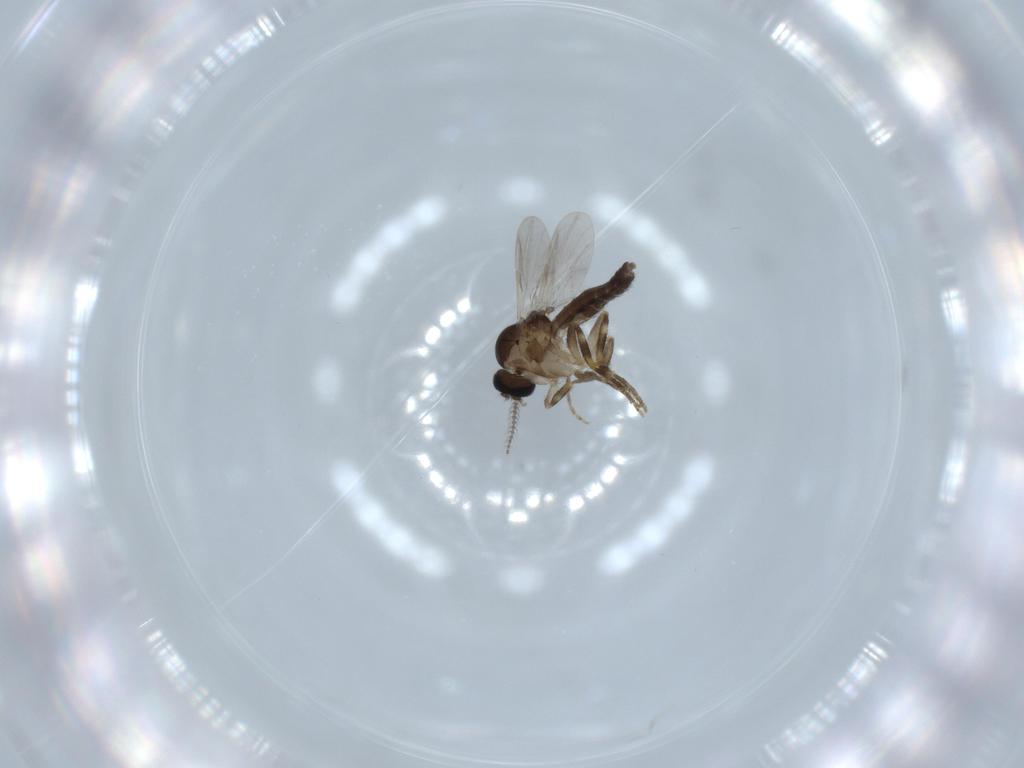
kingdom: Animalia
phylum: Arthropoda
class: Insecta
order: Diptera
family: Ceratopogonidae
